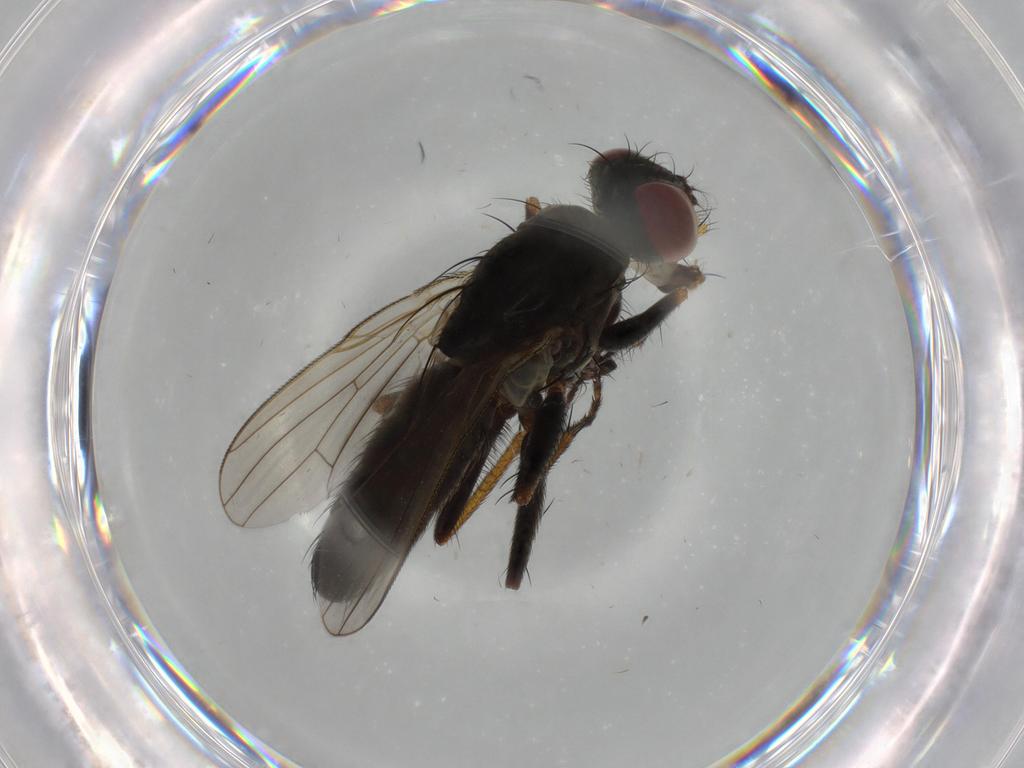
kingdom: Animalia
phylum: Arthropoda
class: Insecta
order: Diptera
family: Muscidae
